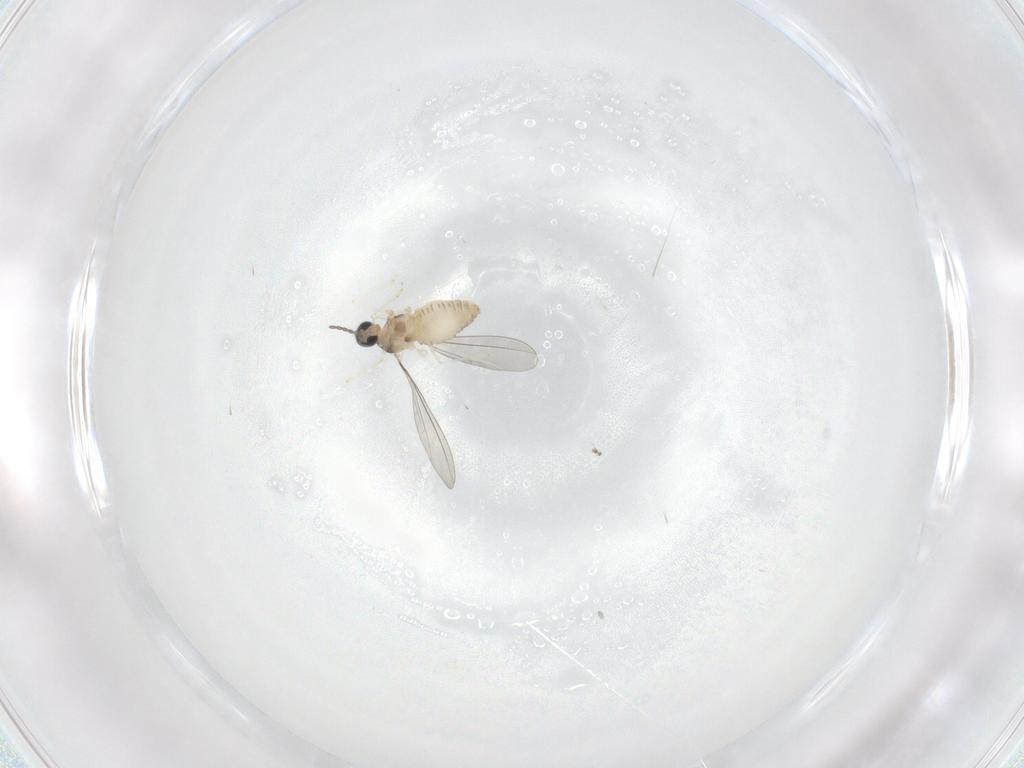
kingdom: Animalia
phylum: Arthropoda
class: Insecta
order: Diptera
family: Cecidomyiidae
